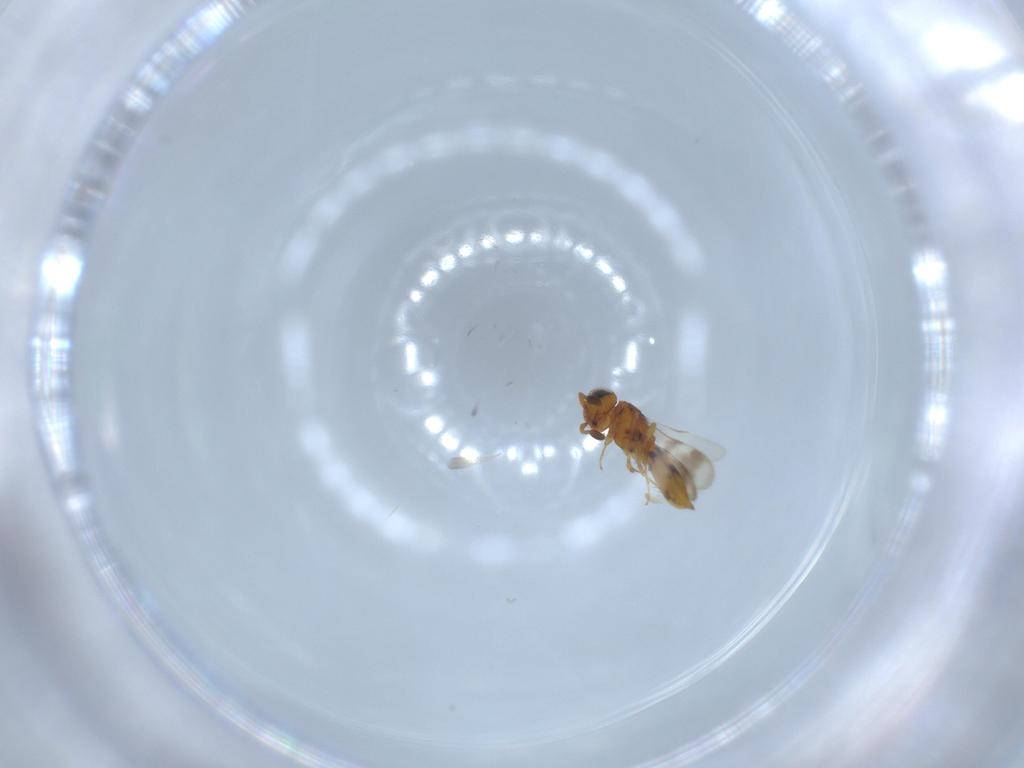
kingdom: Animalia
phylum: Arthropoda
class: Insecta
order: Hymenoptera
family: Scelionidae
